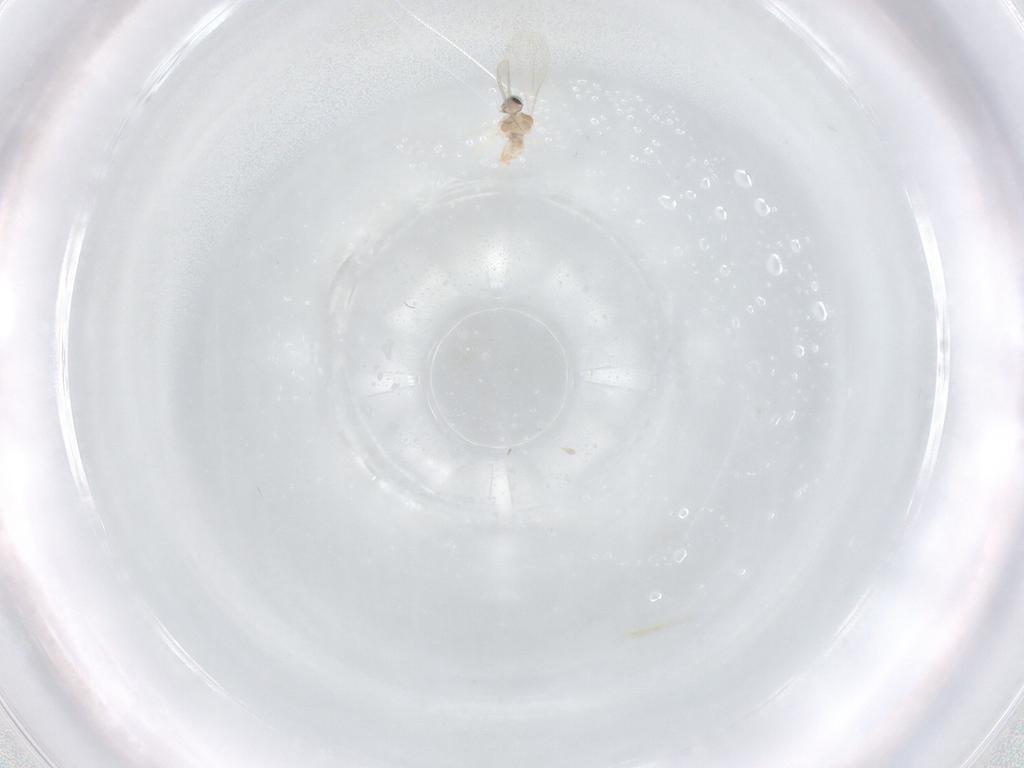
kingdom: Animalia
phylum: Arthropoda
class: Insecta
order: Diptera
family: Cecidomyiidae
